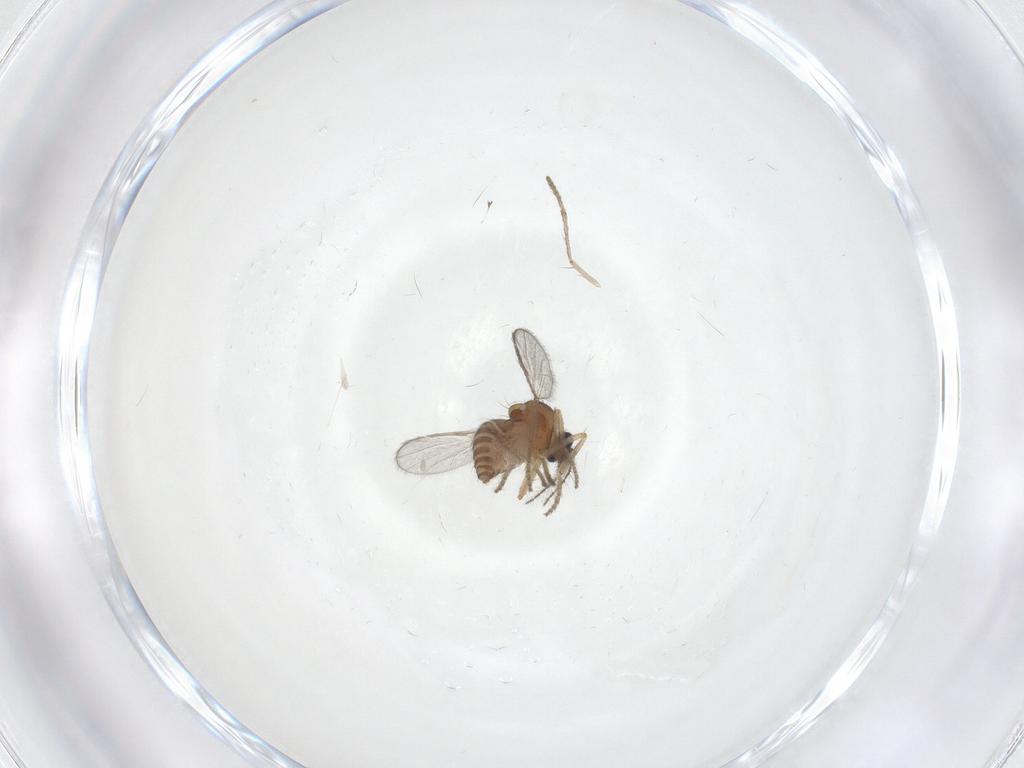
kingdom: Animalia
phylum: Arthropoda
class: Insecta
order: Diptera
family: Ceratopogonidae
